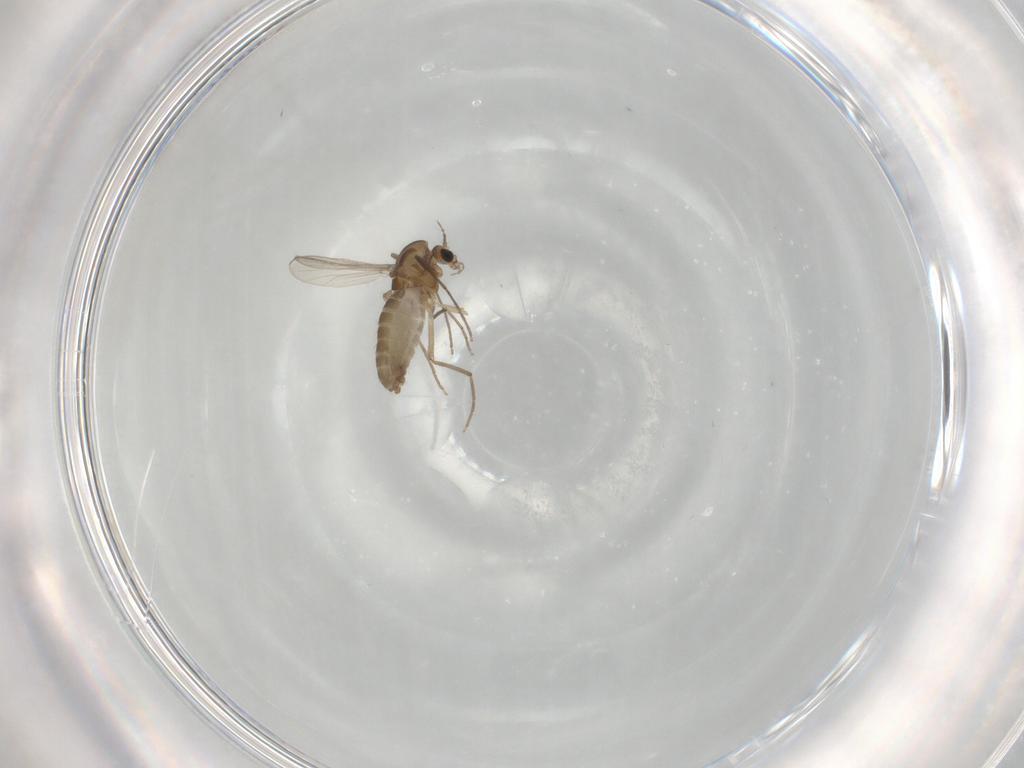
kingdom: Animalia
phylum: Arthropoda
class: Insecta
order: Diptera
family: Chironomidae
